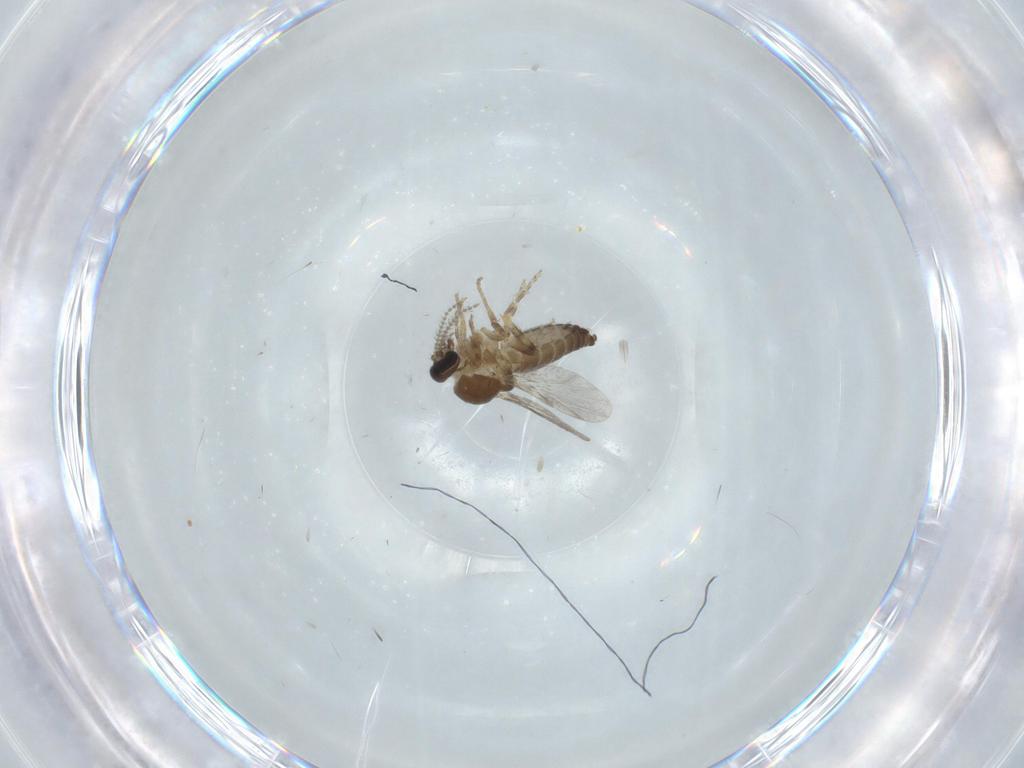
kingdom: Animalia
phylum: Arthropoda
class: Insecta
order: Diptera
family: Ceratopogonidae
